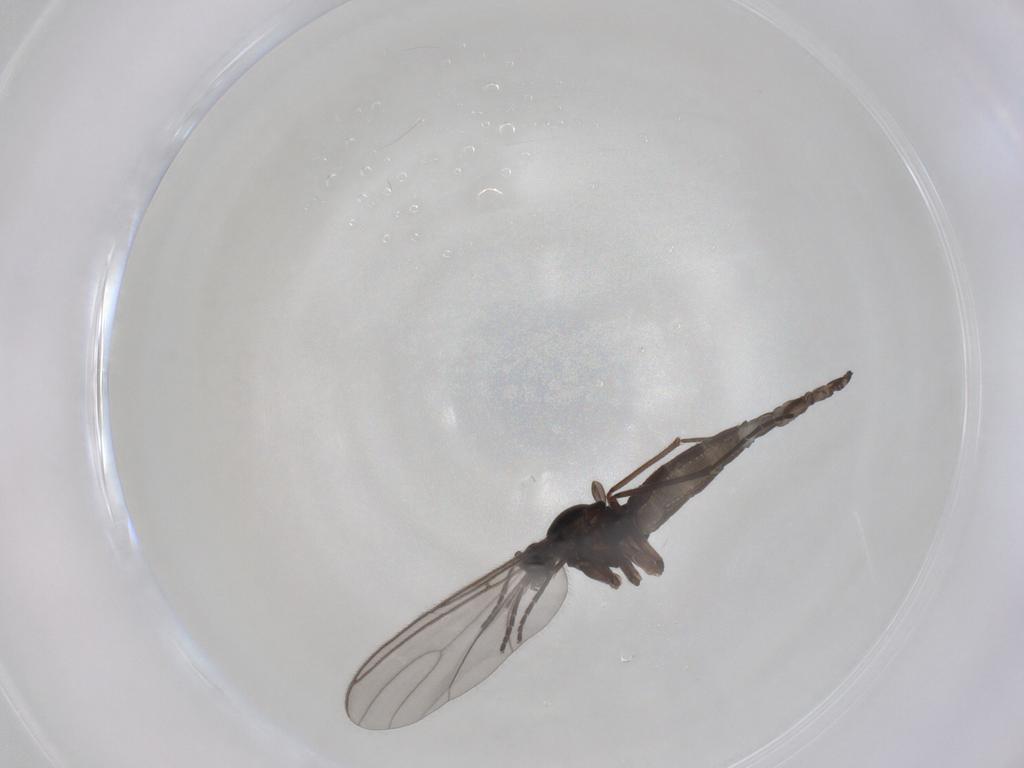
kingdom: Animalia
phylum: Arthropoda
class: Insecta
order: Diptera
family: Sciaridae
